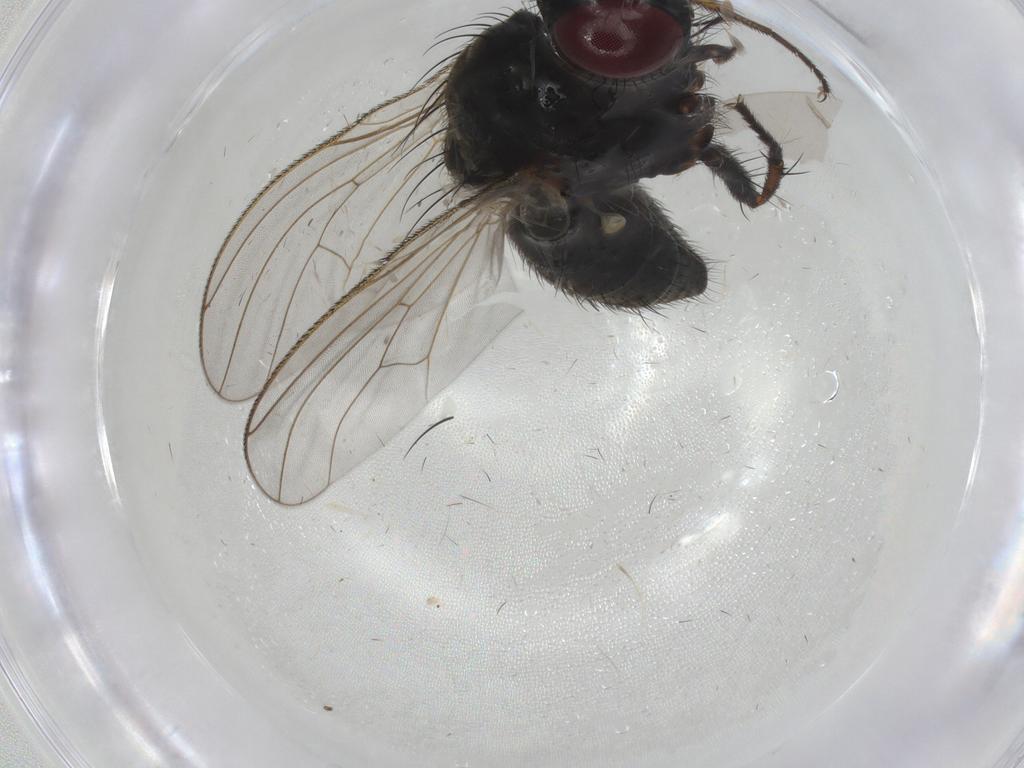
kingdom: Animalia
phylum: Arthropoda
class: Insecta
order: Diptera
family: Muscidae
